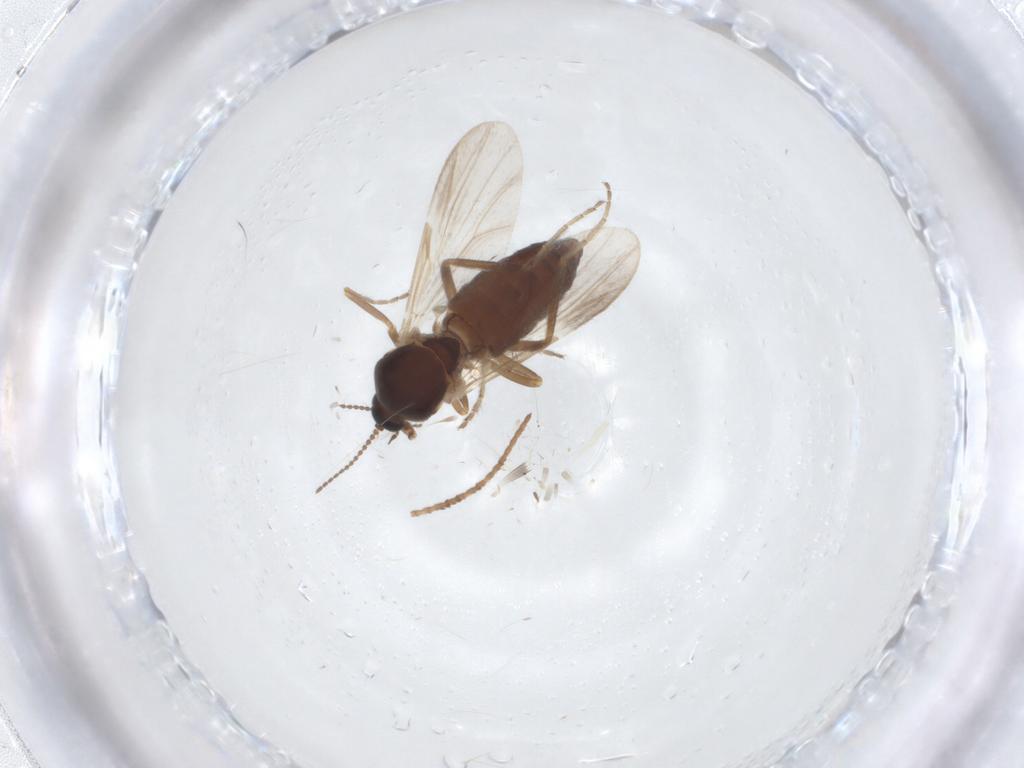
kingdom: Animalia
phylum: Arthropoda
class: Insecta
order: Diptera
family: Ceratopogonidae
